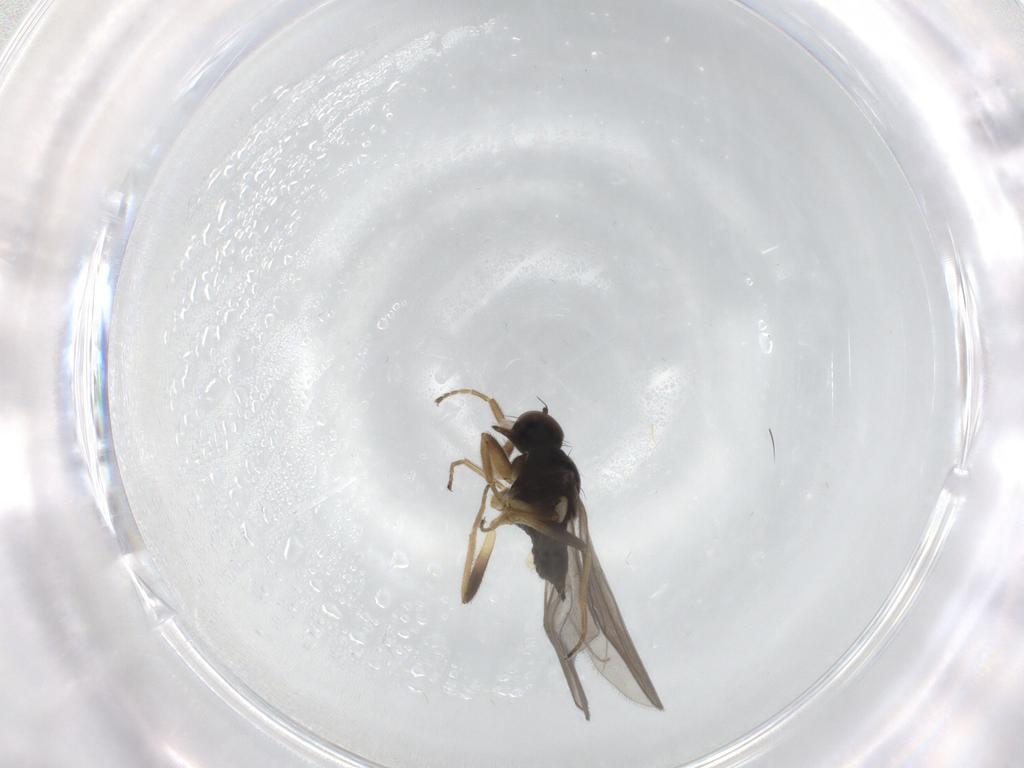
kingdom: Animalia
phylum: Arthropoda
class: Insecta
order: Diptera
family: Hybotidae
